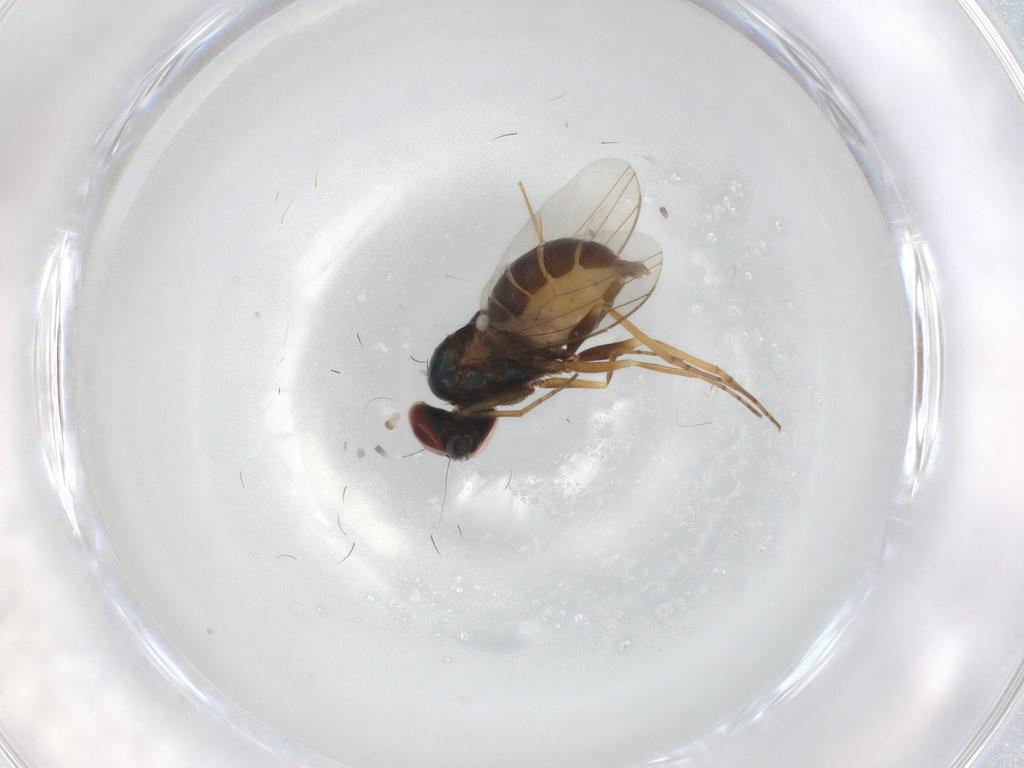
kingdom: Animalia
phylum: Arthropoda
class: Insecta
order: Diptera
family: Dolichopodidae
